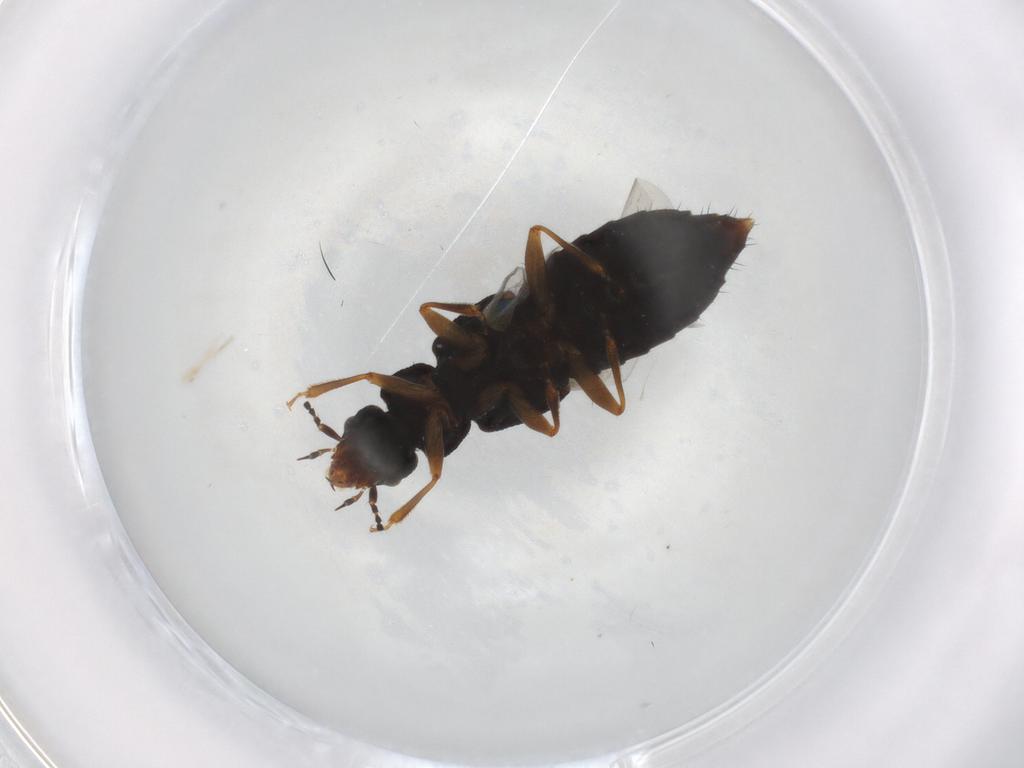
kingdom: Animalia
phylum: Arthropoda
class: Insecta
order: Coleoptera
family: Staphylinidae
